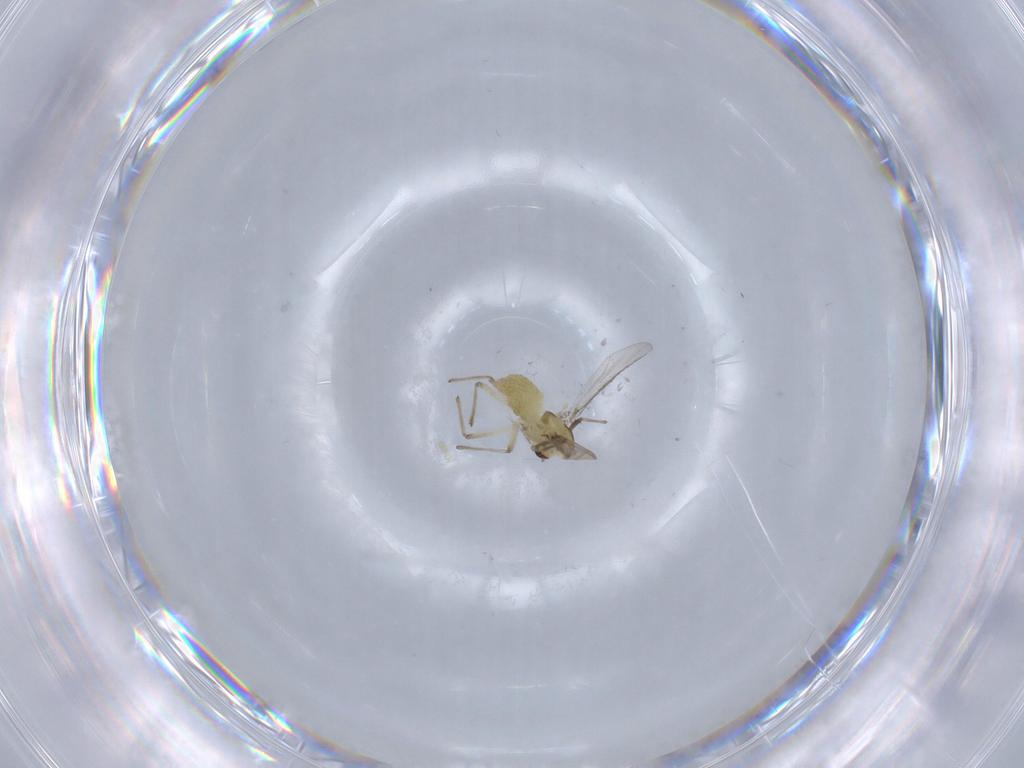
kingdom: Animalia
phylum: Arthropoda
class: Insecta
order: Diptera
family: Chironomidae
